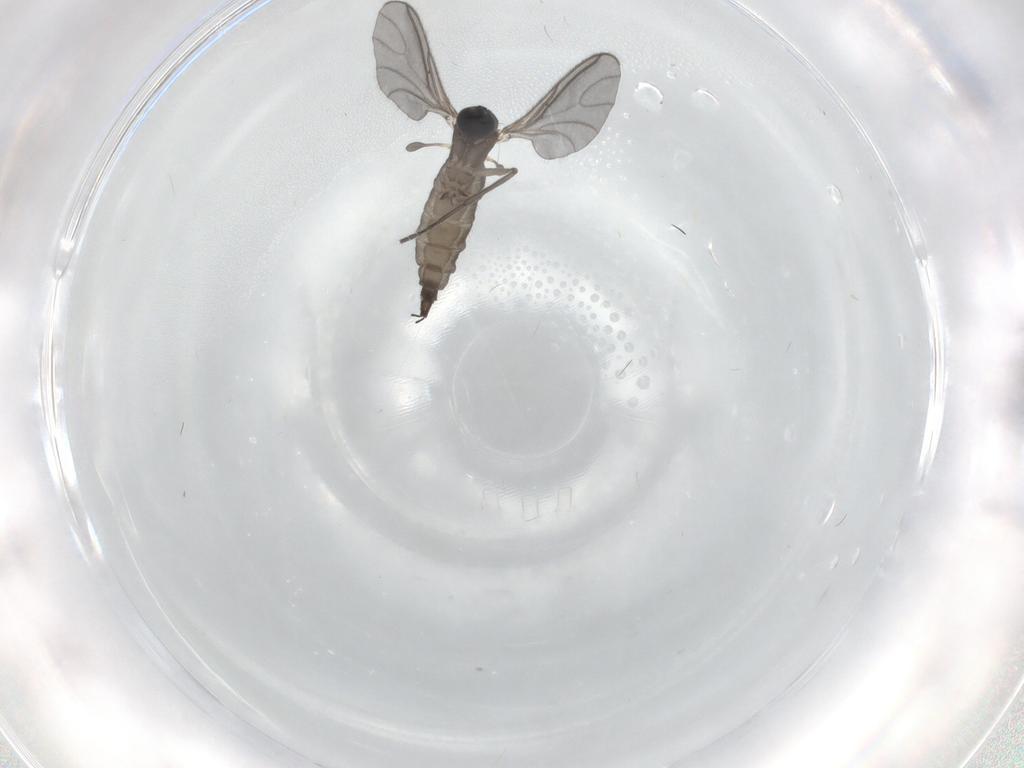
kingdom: Animalia
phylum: Arthropoda
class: Insecta
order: Diptera
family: Sciaridae
